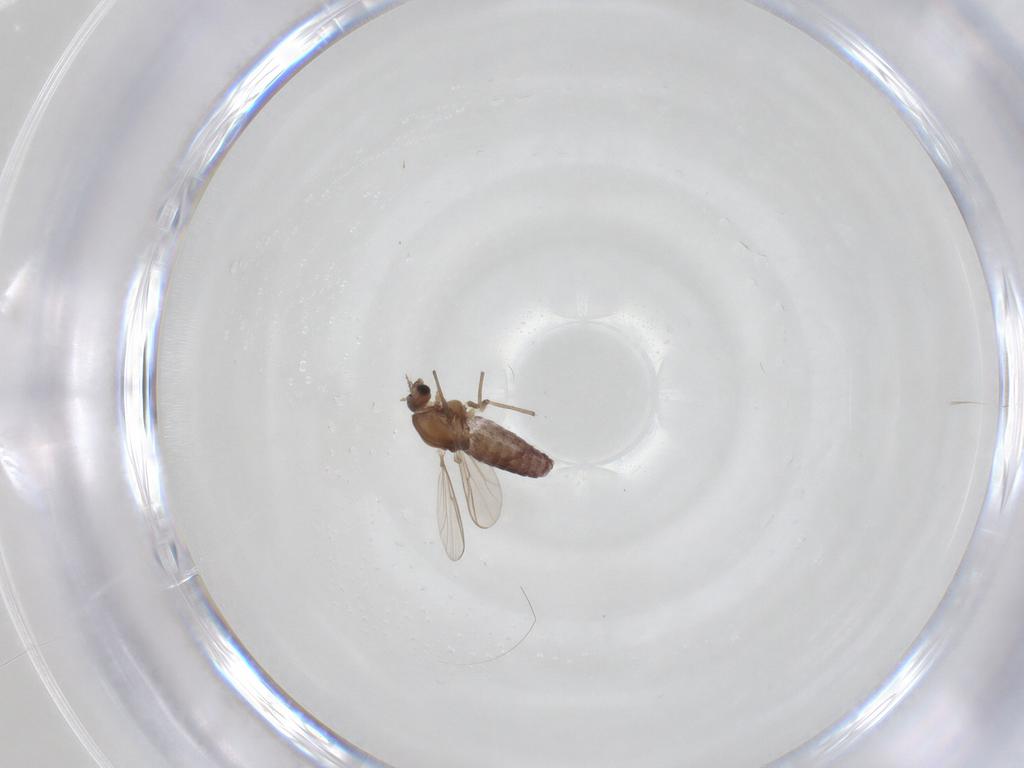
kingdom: Animalia
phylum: Arthropoda
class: Insecta
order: Diptera
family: Chironomidae
